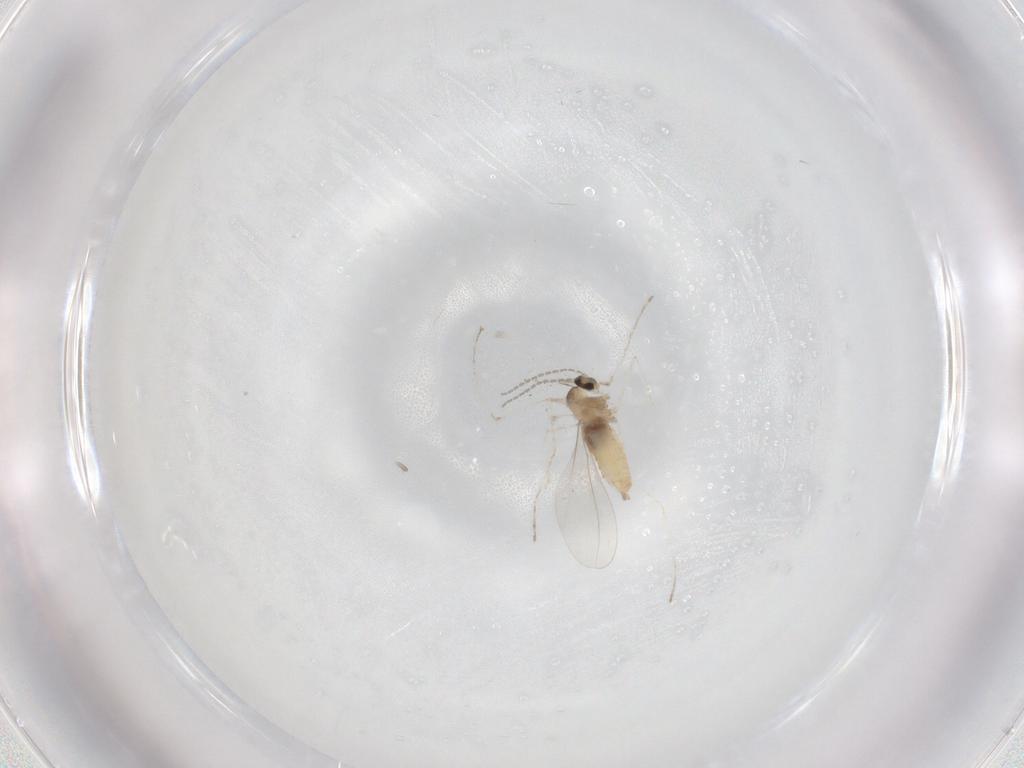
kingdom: Animalia
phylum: Arthropoda
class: Insecta
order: Diptera
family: Cecidomyiidae
